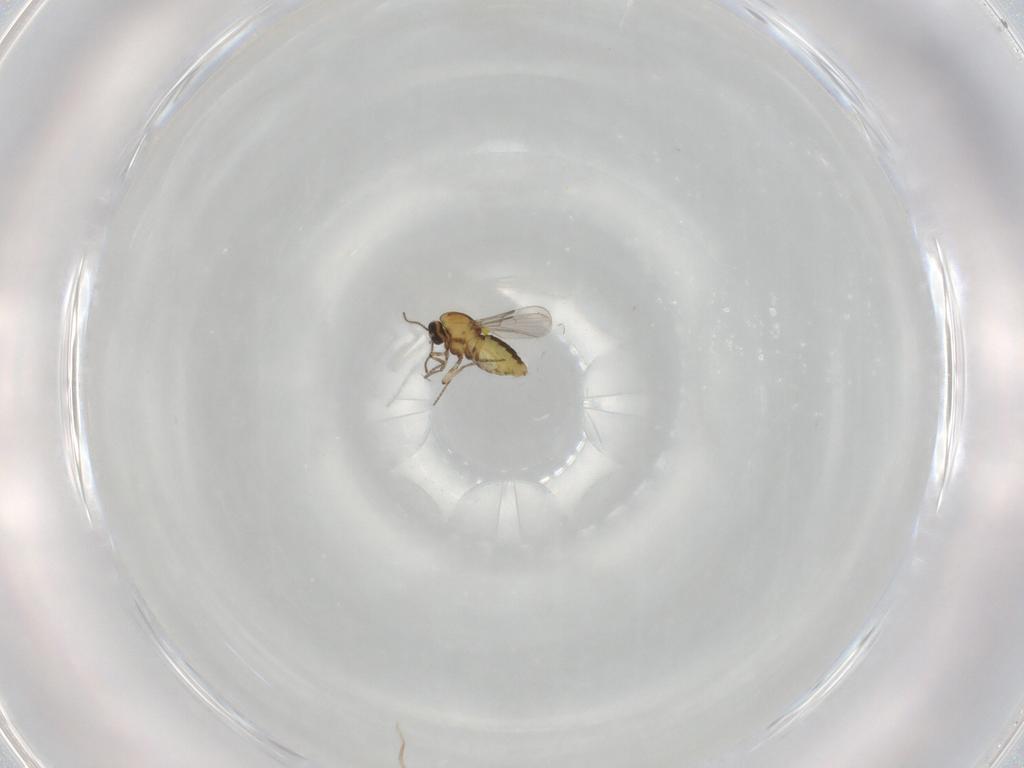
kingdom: Animalia
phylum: Arthropoda
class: Insecta
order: Diptera
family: Ceratopogonidae
